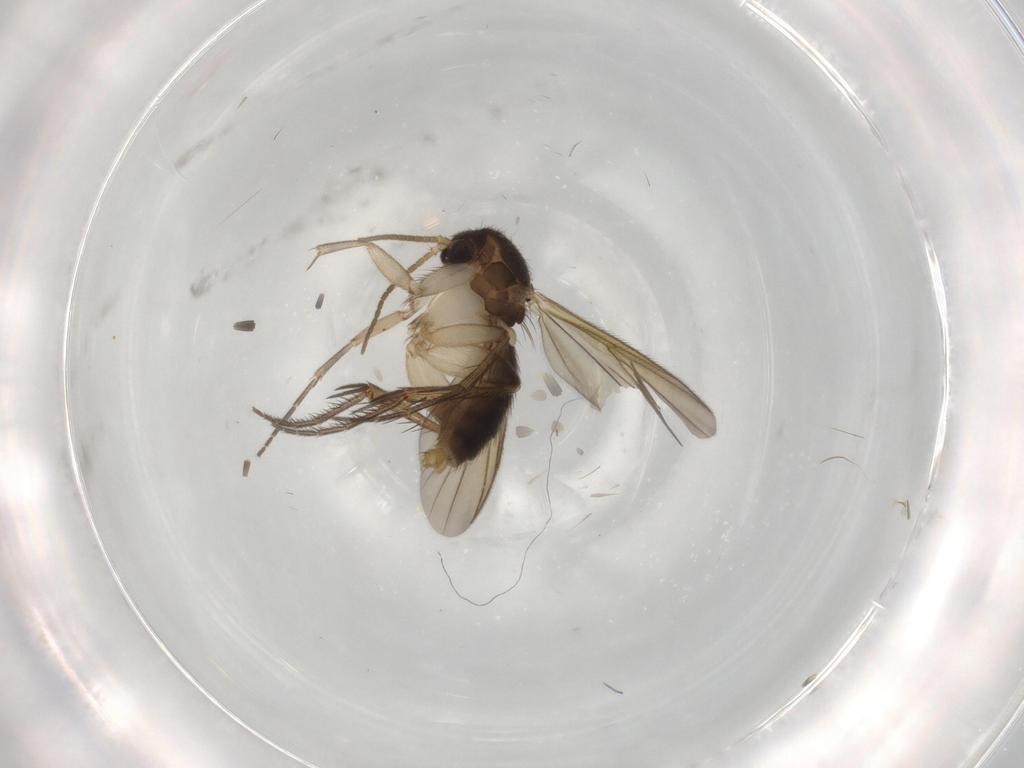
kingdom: Animalia
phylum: Arthropoda
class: Insecta
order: Diptera
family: Mycetophilidae
